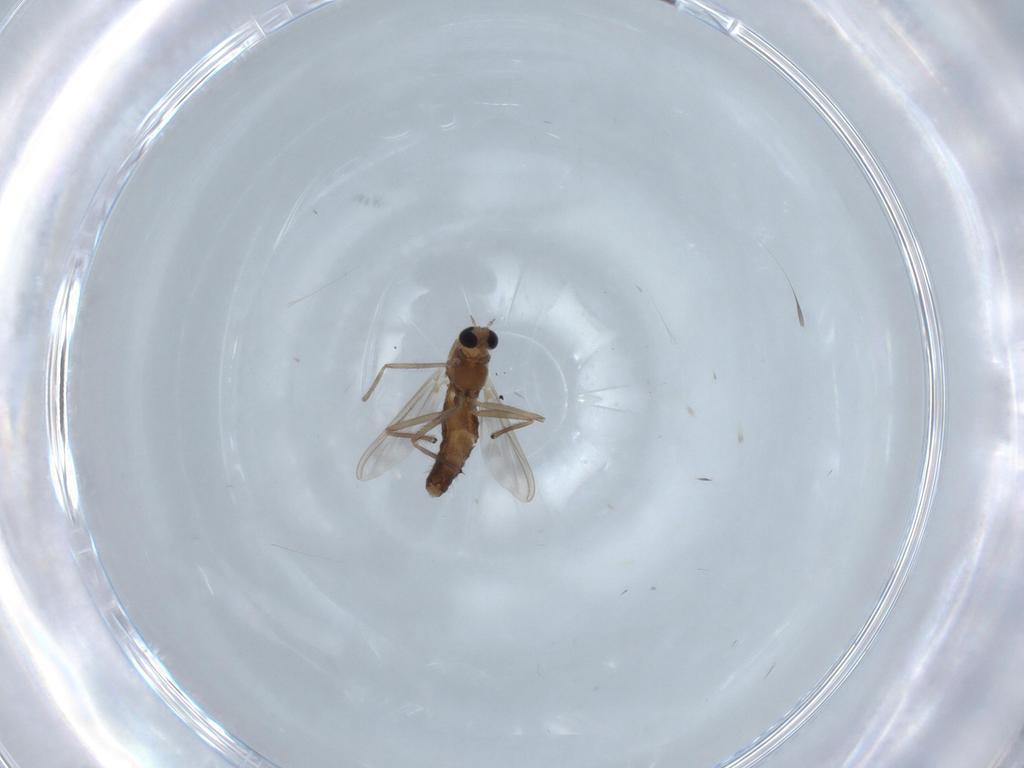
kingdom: Animalia
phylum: Arthropoda
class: Insecta
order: Diptera
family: Chironomidae
